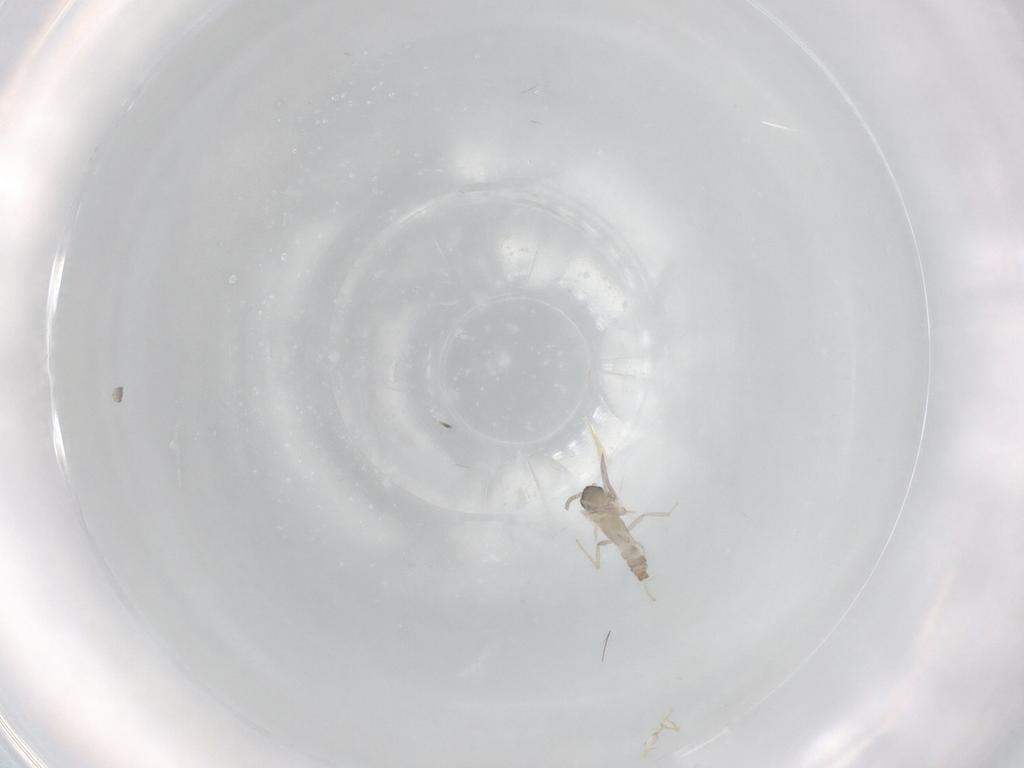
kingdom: Animalia
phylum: Arthropoda
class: Insecta
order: Diptera
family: Cecidomyiidae
